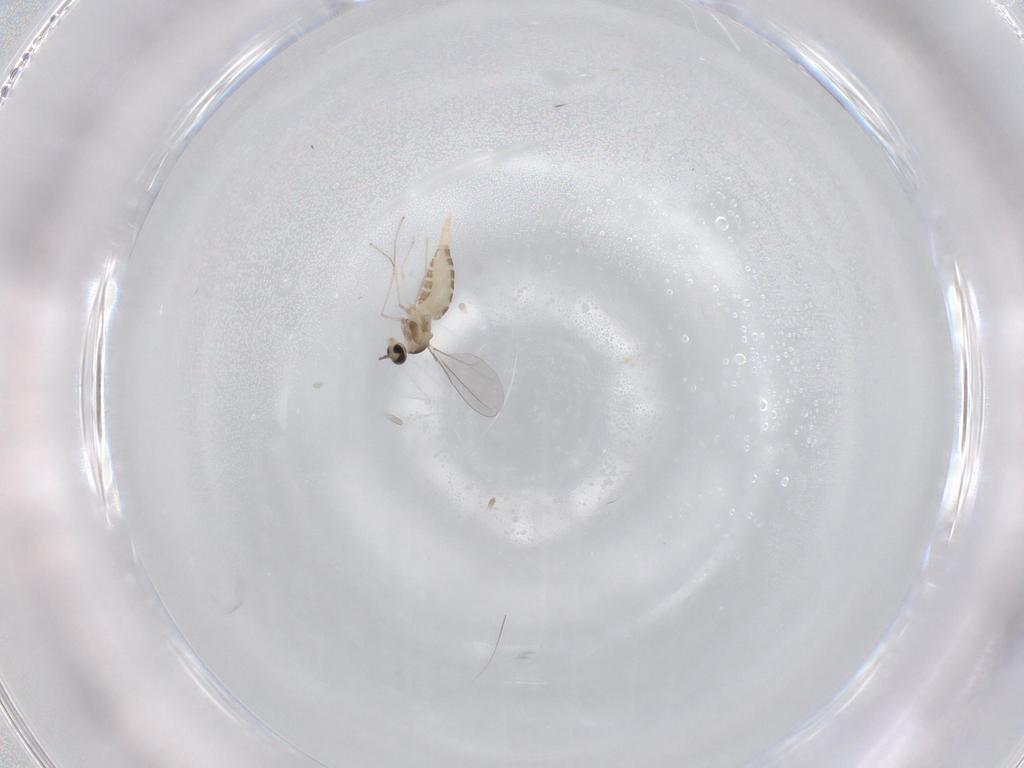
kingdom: Animalia
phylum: Arthropoda
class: Insecta
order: Diptera
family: Cecidomyiidae
